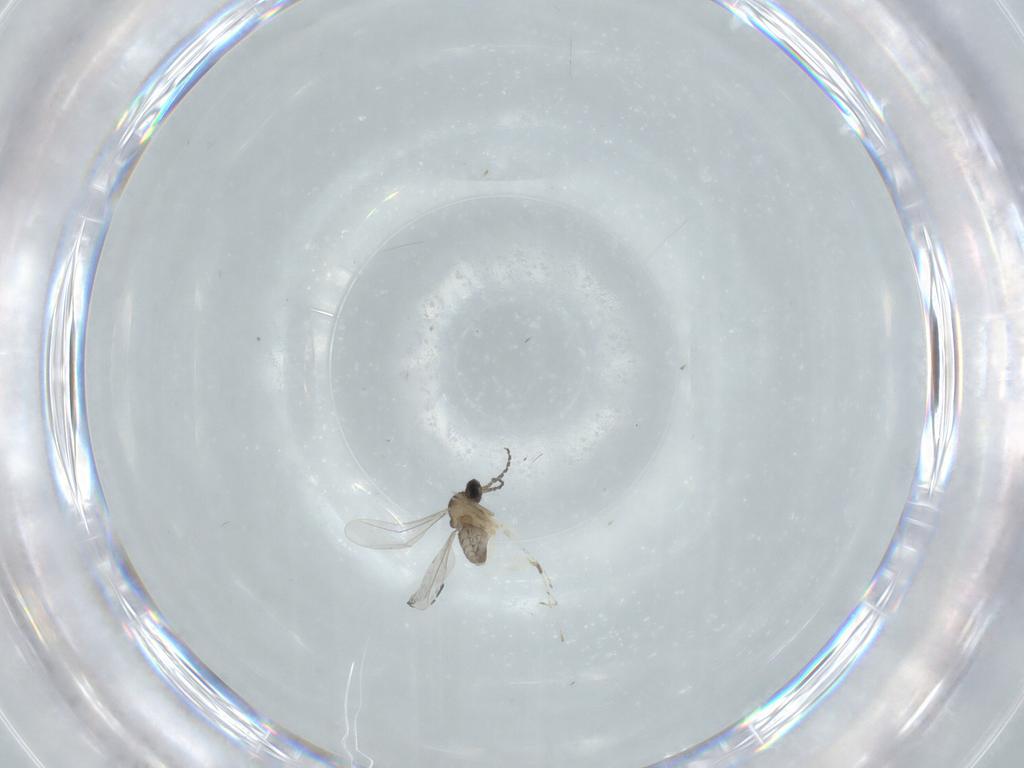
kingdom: Animalia
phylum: Arthropoda
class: Insecta
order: Diptera
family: Cecidomyiidae
